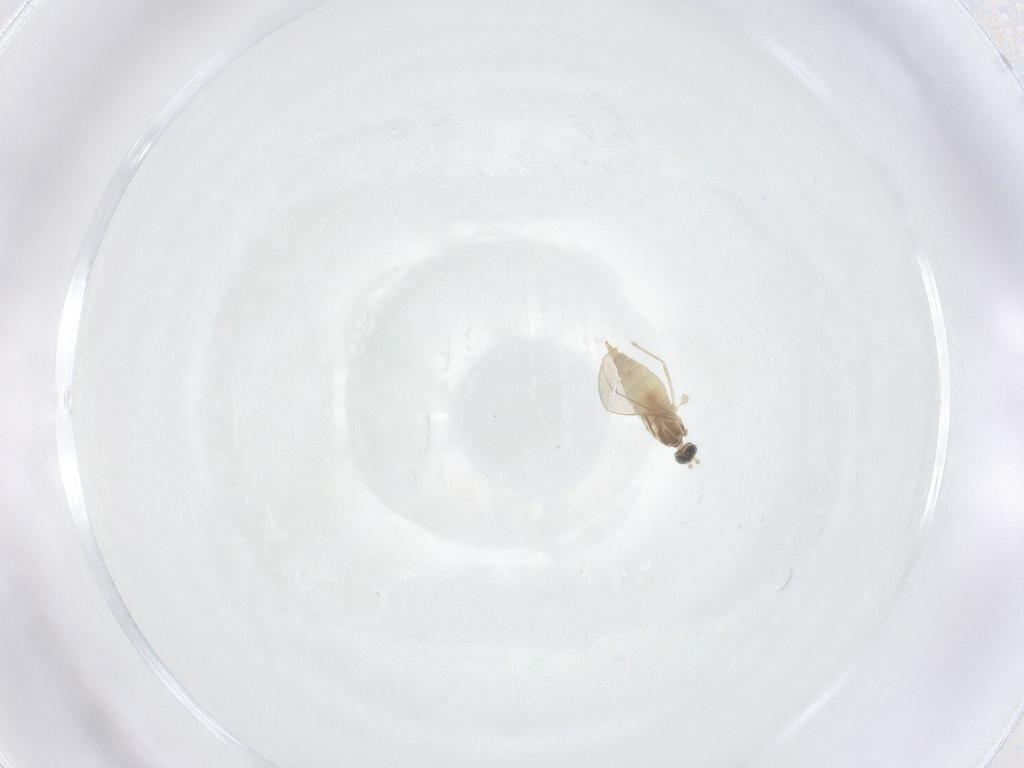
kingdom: Animalia
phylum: Arthropoda
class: Insecta
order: Diptera
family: Cecidomyiidae
